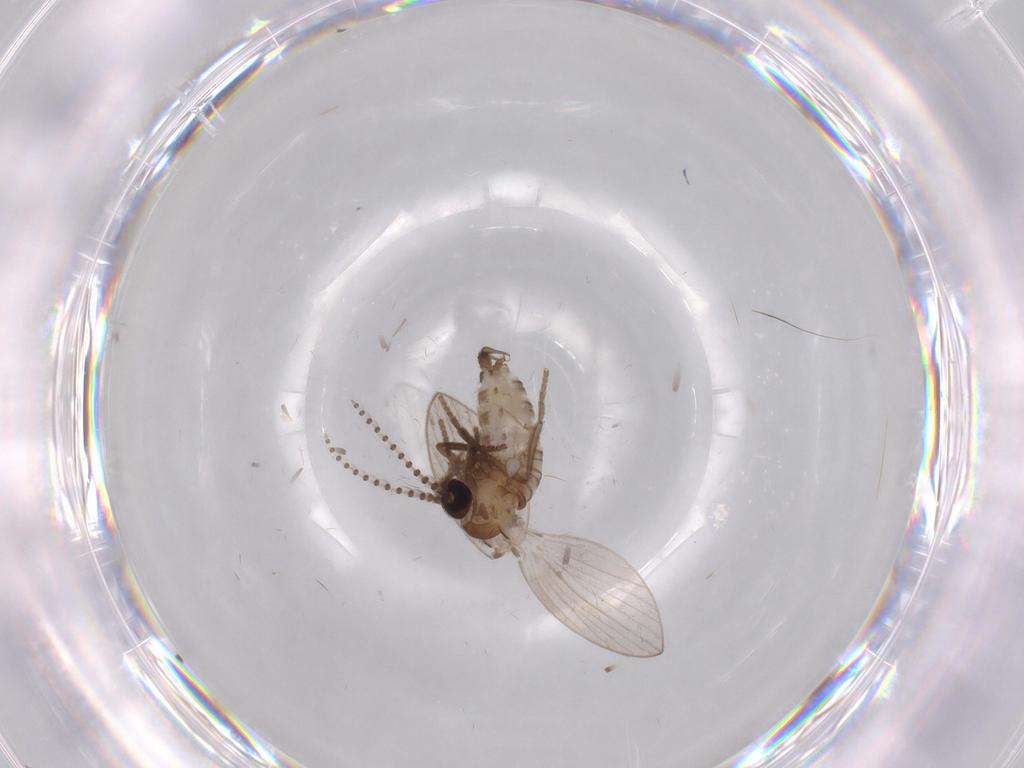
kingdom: Animalia
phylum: Arthropoda
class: Insecta
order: Diptera
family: Limoniidae
